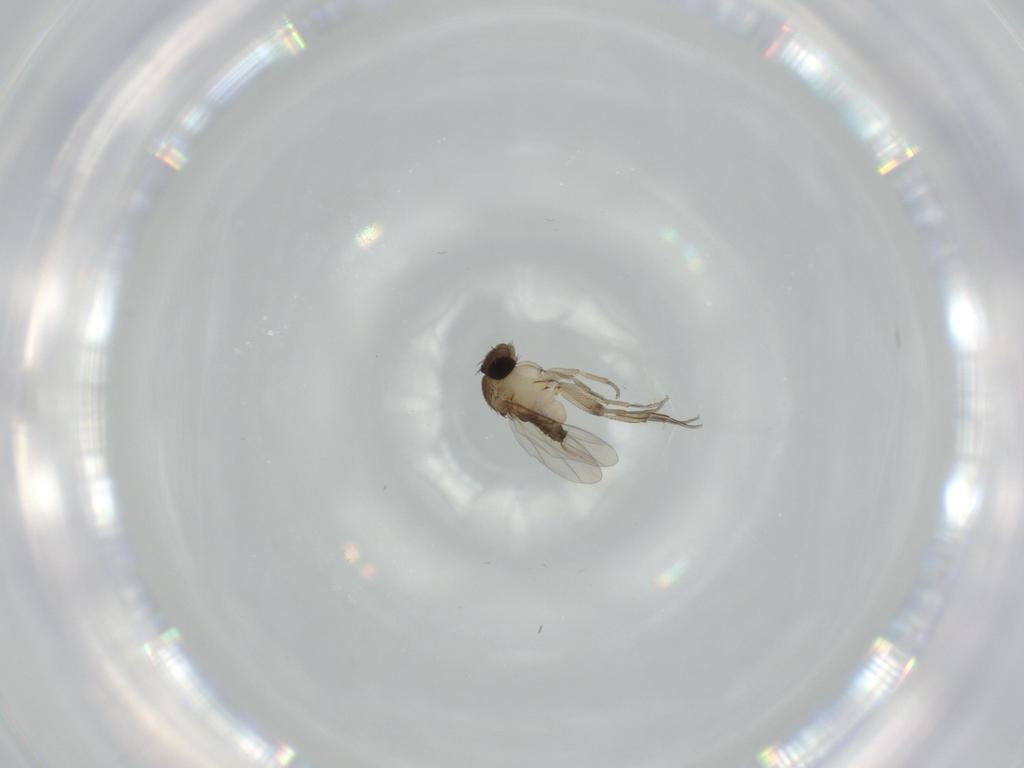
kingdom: Animalia
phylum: Arthropoda
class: Insecta
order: Diptera
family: Phoridae
